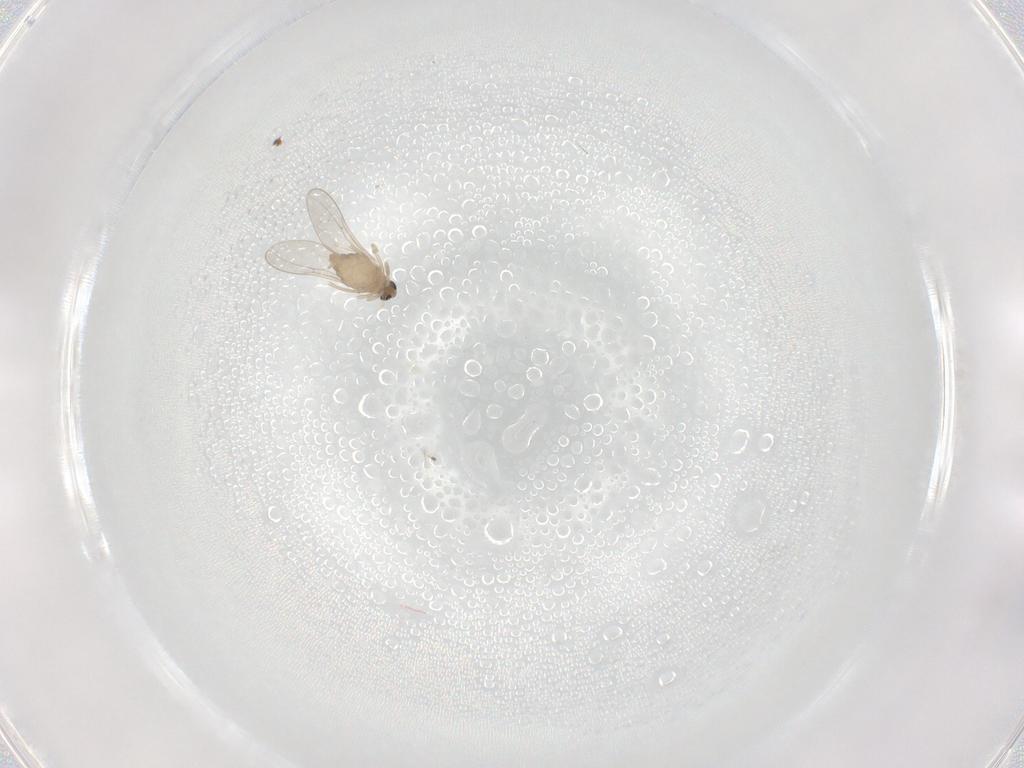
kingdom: Animalia
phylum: Arthropoda
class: Insecta
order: Diptera
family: Cecidomyiidae
